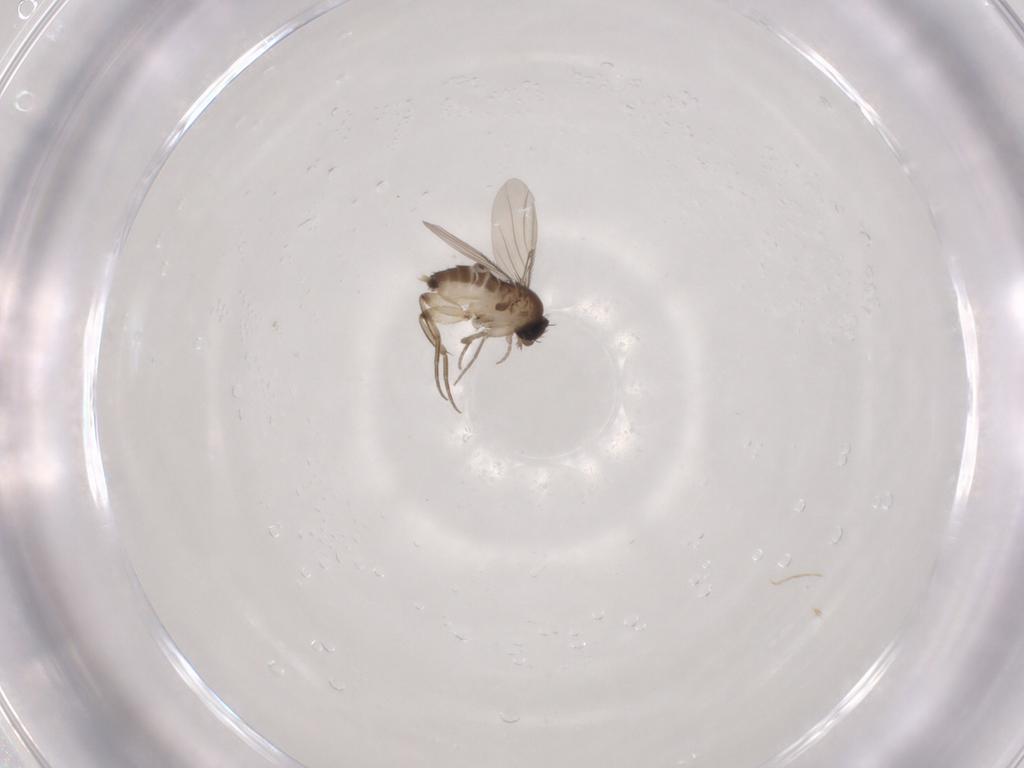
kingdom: Animalia
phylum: Arthropoda
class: Insecta
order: Diptera
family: Phoridae
